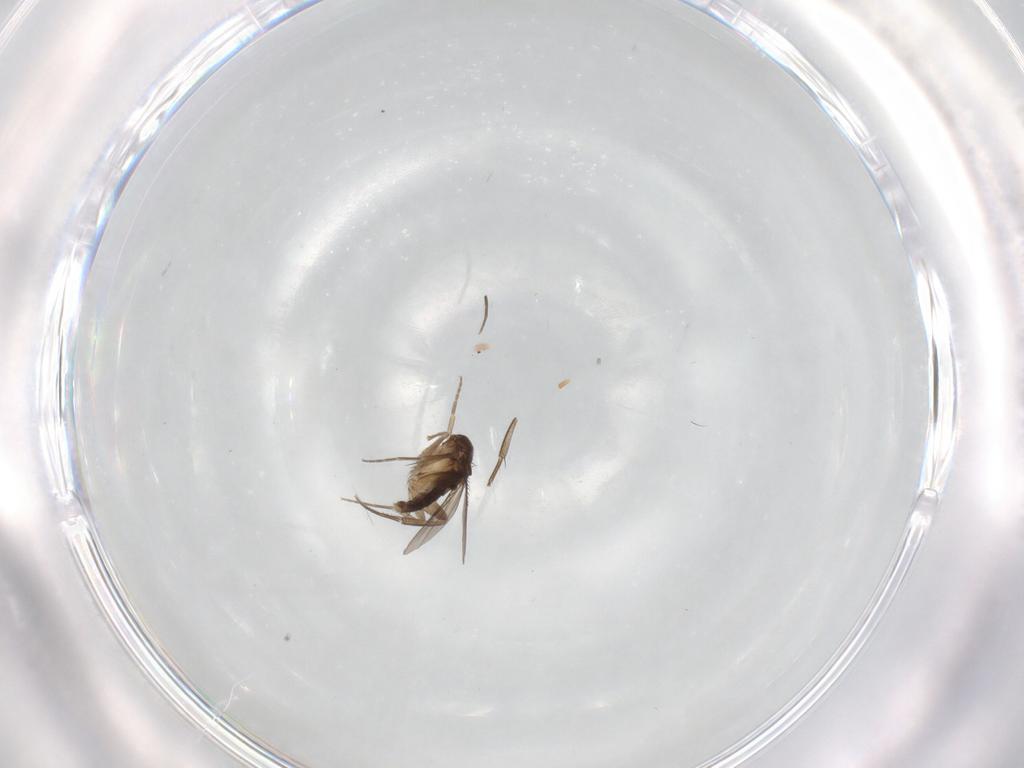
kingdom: Animalia
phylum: Arthropoda
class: Insecta
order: Diptera
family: Phoridae
